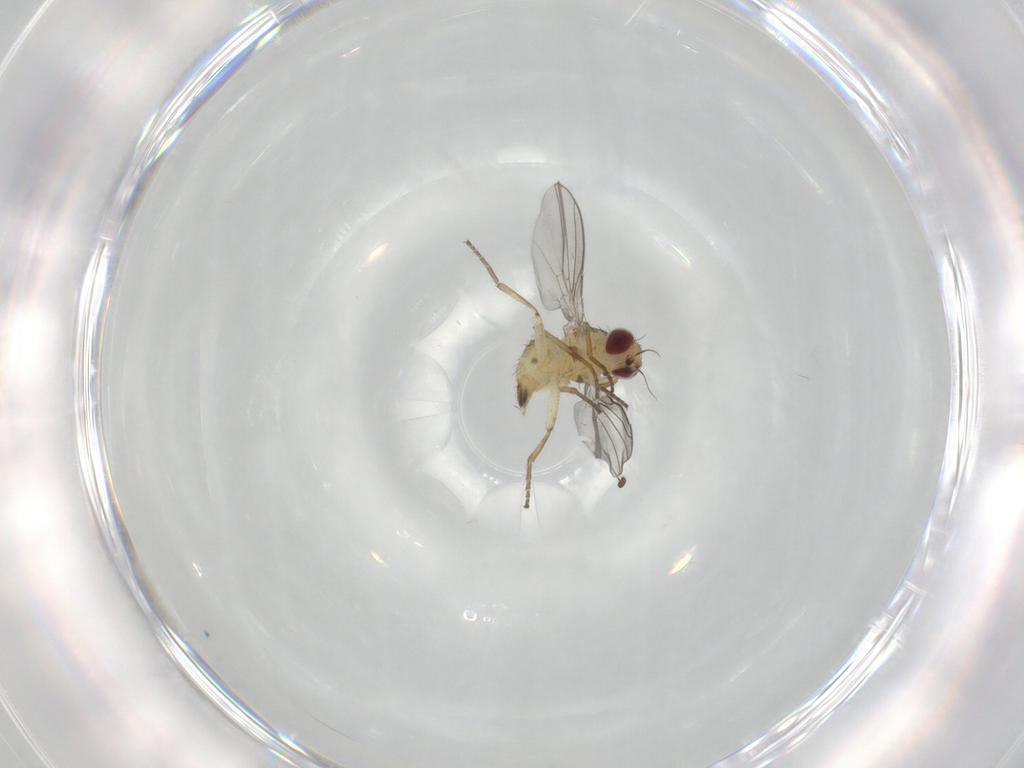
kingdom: Animalia
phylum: Arthropoda
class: Insecta
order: Diptera
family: Agromyzidae
